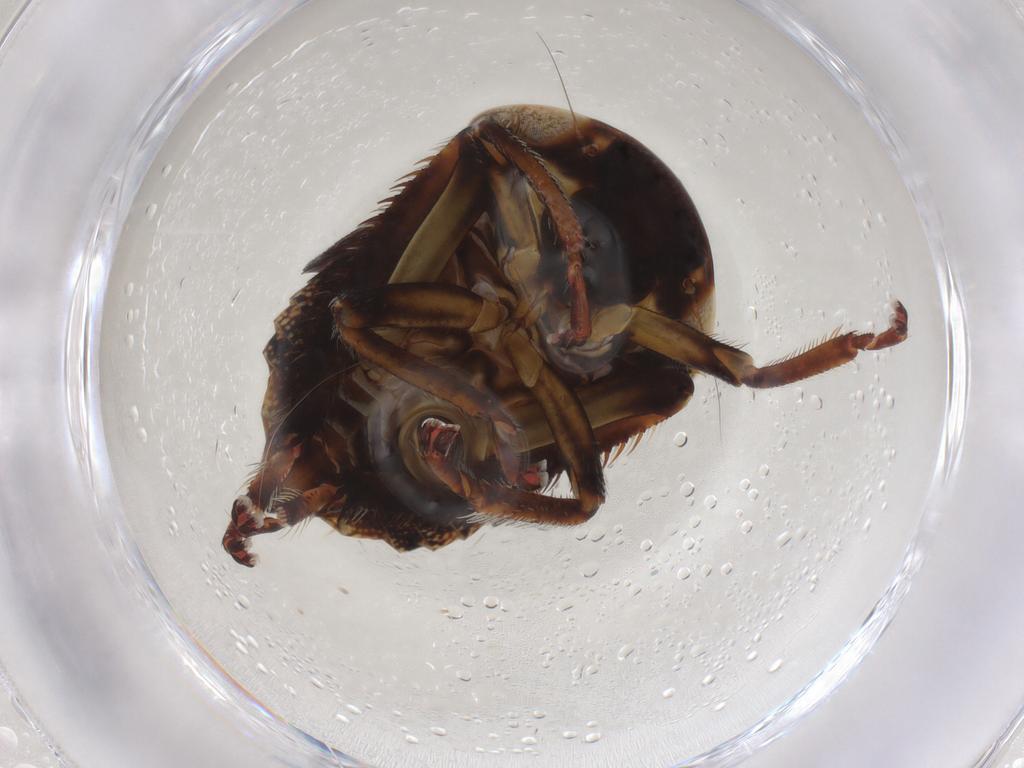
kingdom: Animalia
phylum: Arthropoda
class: Insecta
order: Hemiptera
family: Cicadellidae
